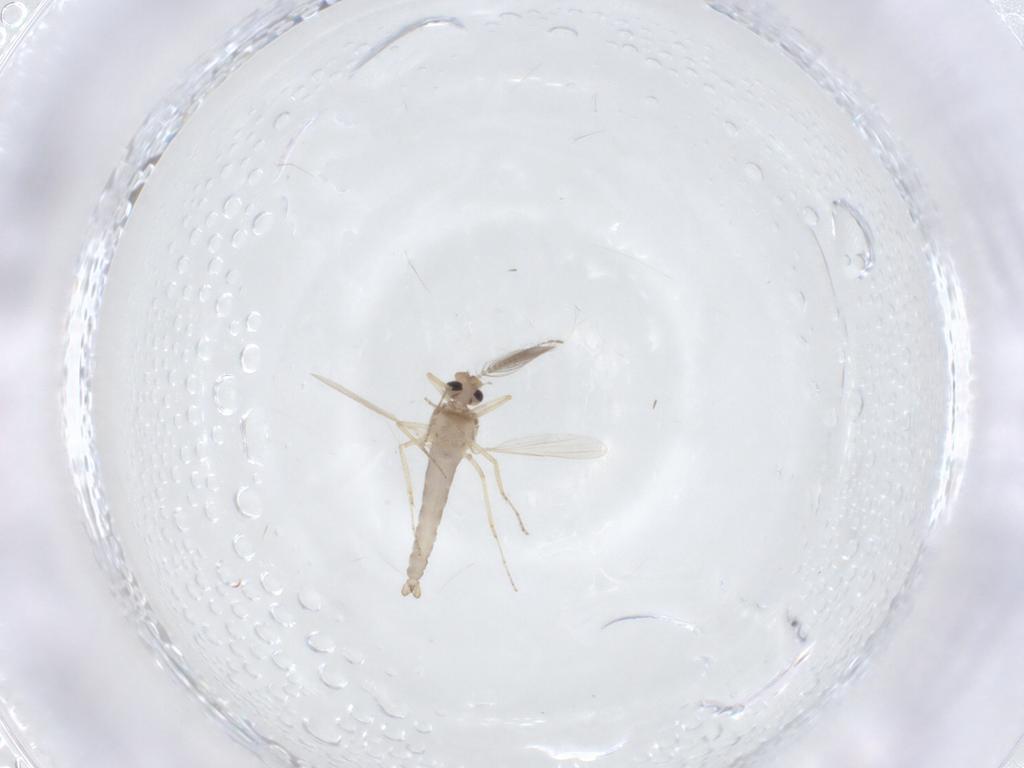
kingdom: Animalia
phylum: Arthropoda
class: Insecta
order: Diptera
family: Ceratopogonidae
